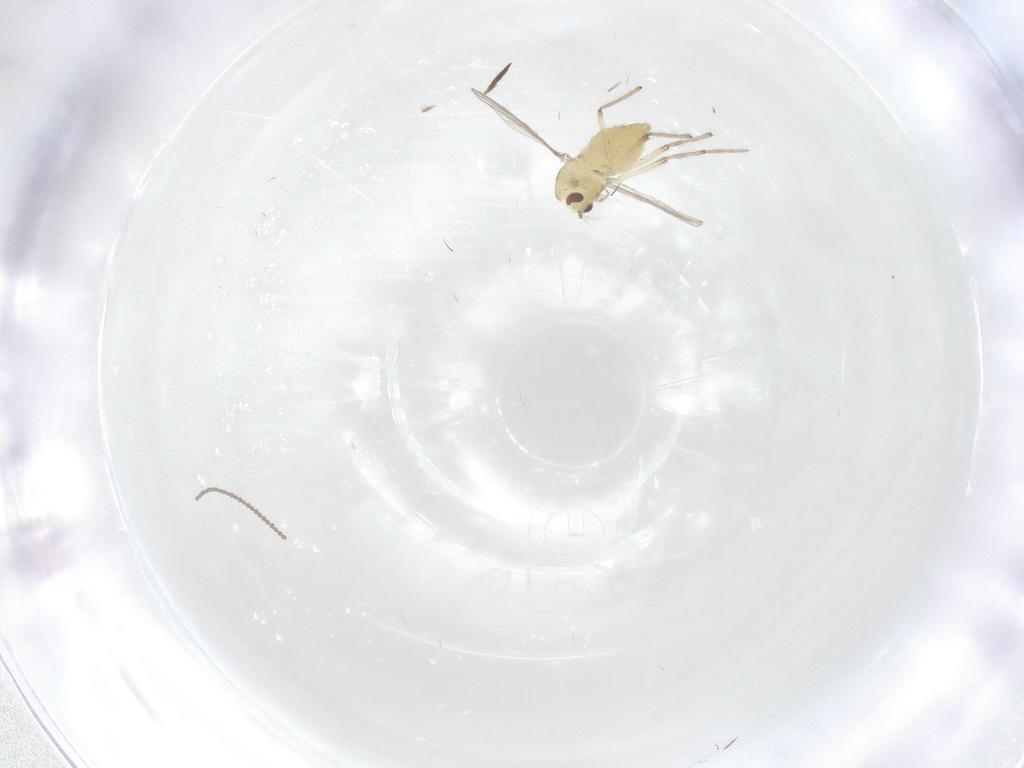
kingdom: Animalia
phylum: Arthropoda
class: Insecta
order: Diptera
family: Chironomidae
